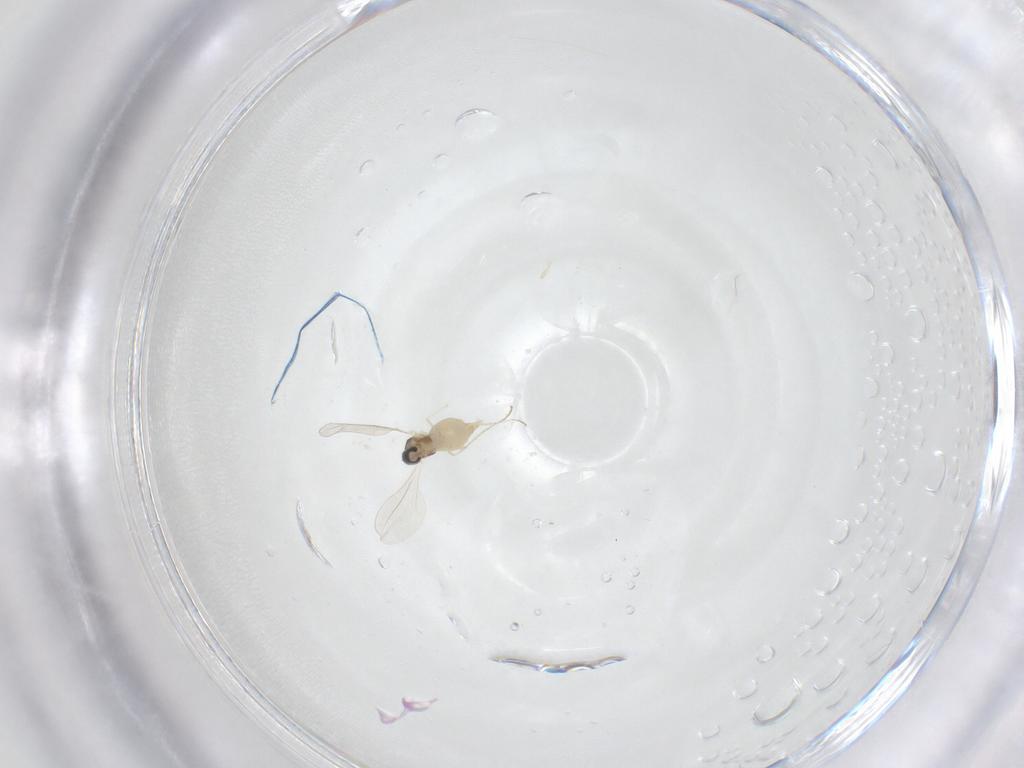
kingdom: Animalia
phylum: Arthropoda
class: Insecta
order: Diptera
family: Cecidomyiidae
